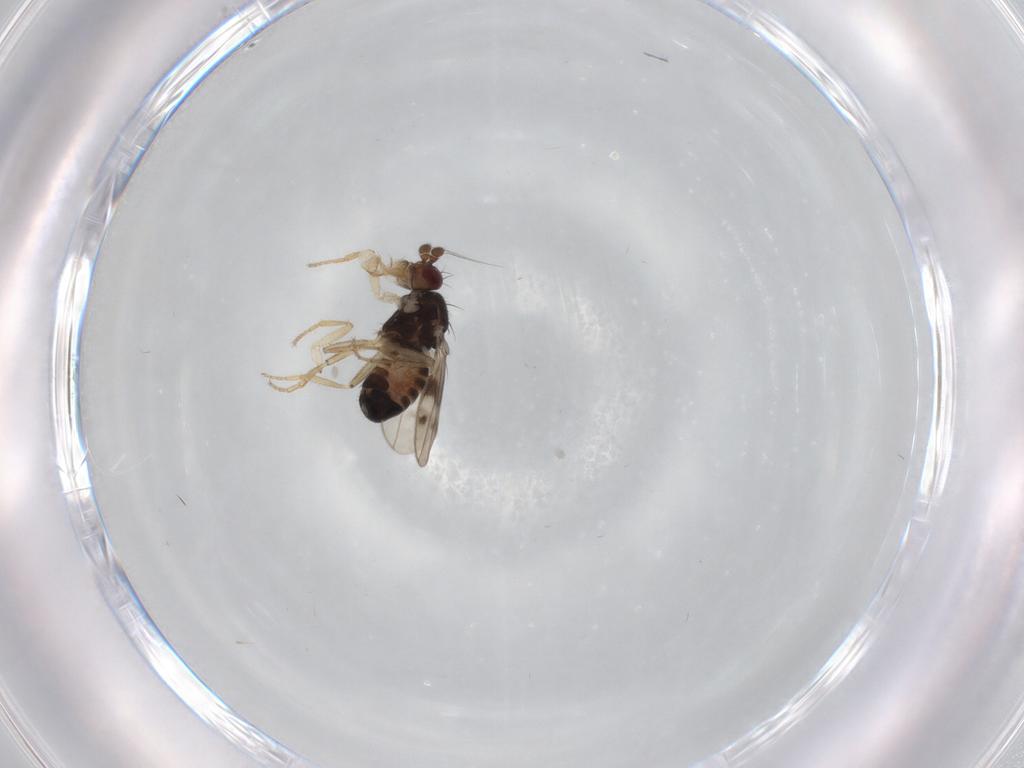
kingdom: Animalia
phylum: Arthropoda
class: Insecta
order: Diptera
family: Sphaeroceridae
